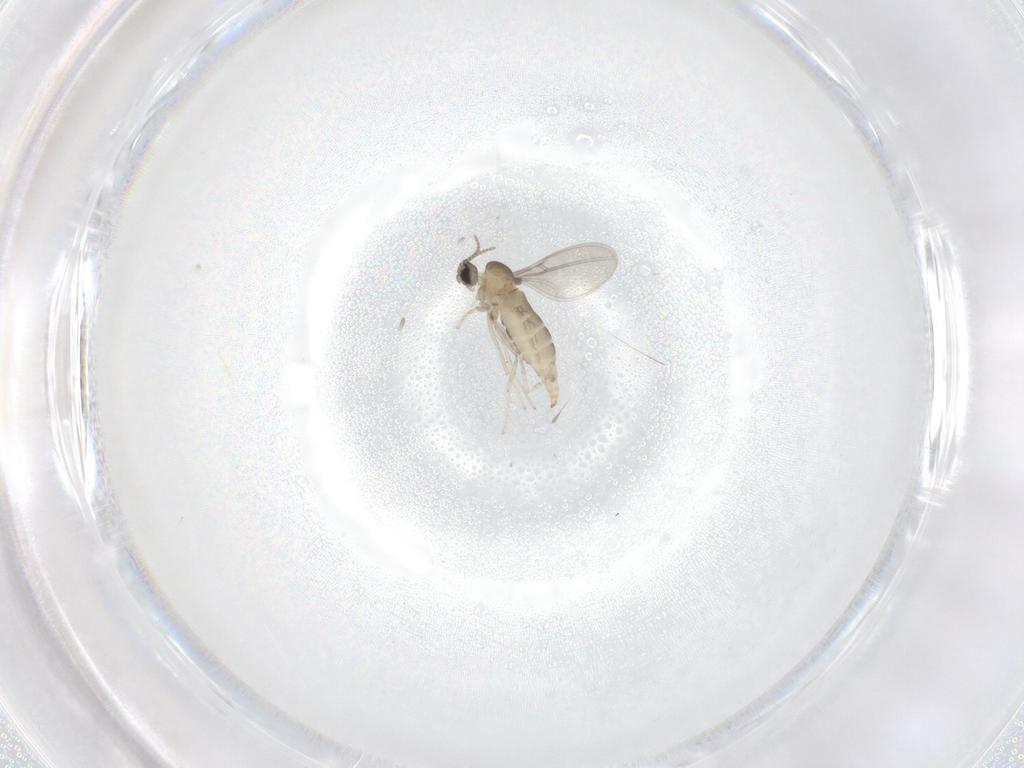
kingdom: Animalia
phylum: Arthropoda
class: Insecta
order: Diptera
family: Cecidomyiidae
